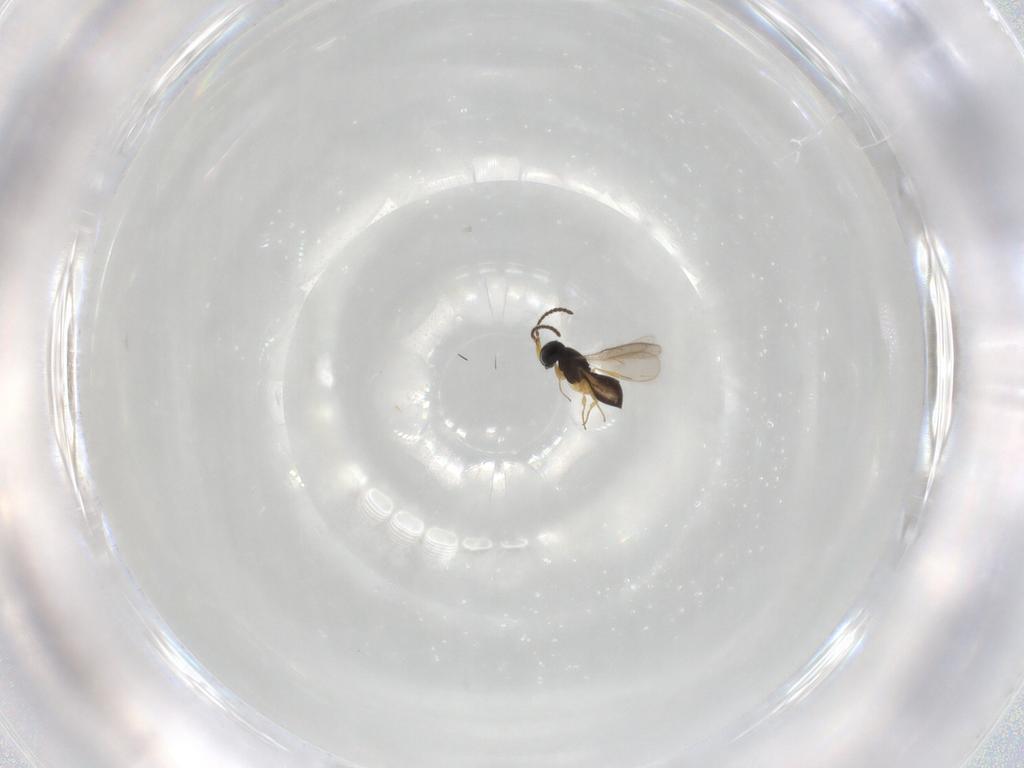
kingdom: Animalia
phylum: Arthropoda
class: Insecta
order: Hymenoptera
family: Scelionidae
